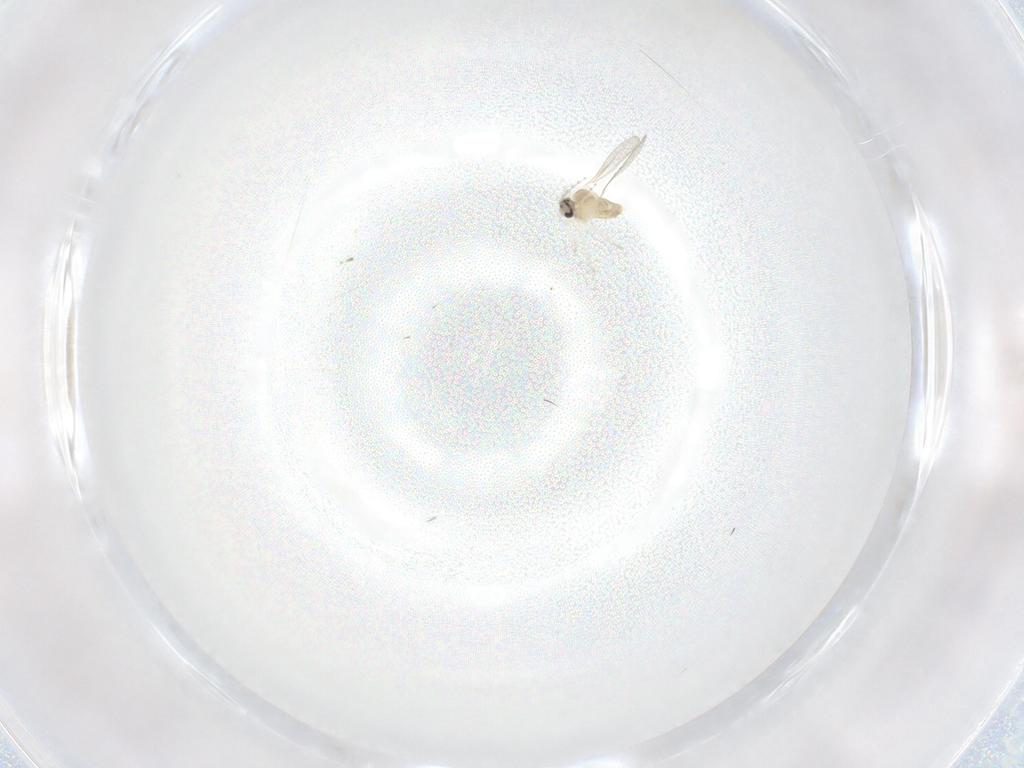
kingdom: Animalia
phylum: Arthropoda
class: Insecta
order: Diptera
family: Cecidomyiidae
